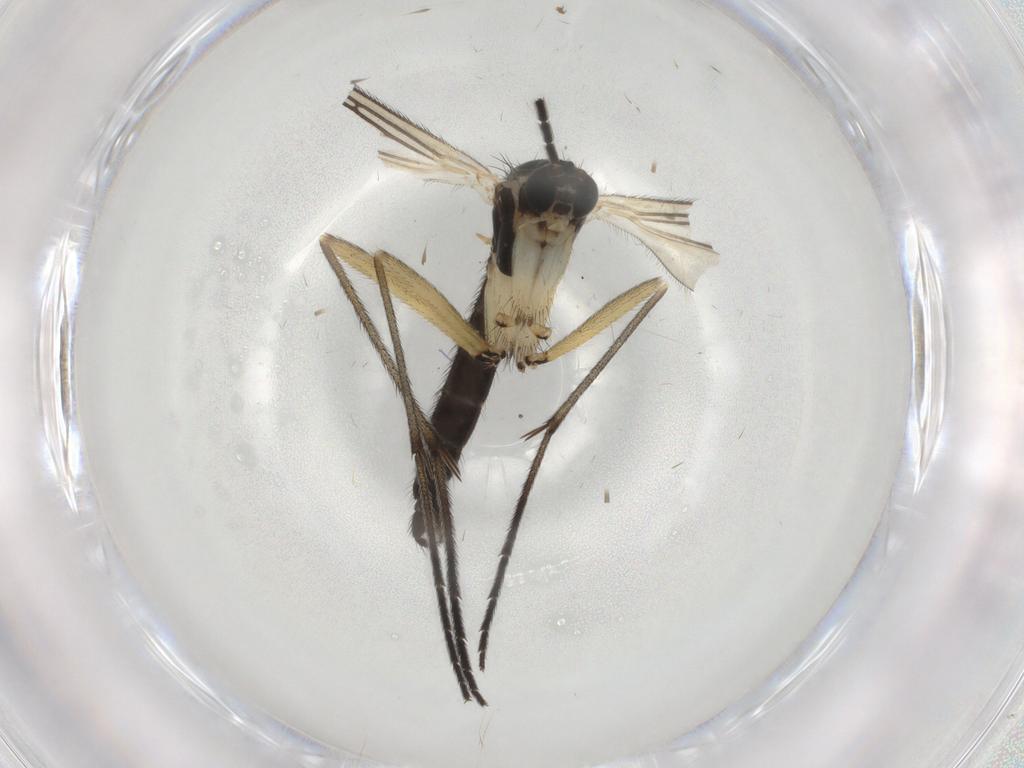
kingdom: Animalia
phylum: Arthropoda
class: Insecta
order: Diptera
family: Sciaridae
